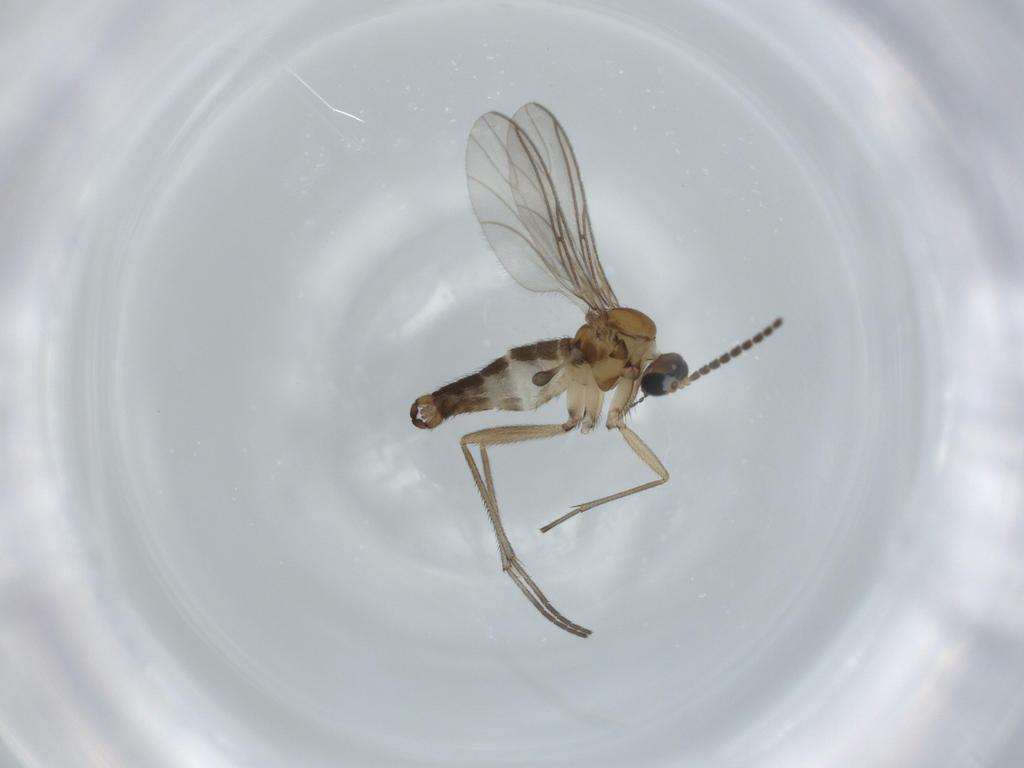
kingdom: Animalia
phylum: Arthropoda
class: Insecta
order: Diptera
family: Sciaridae
